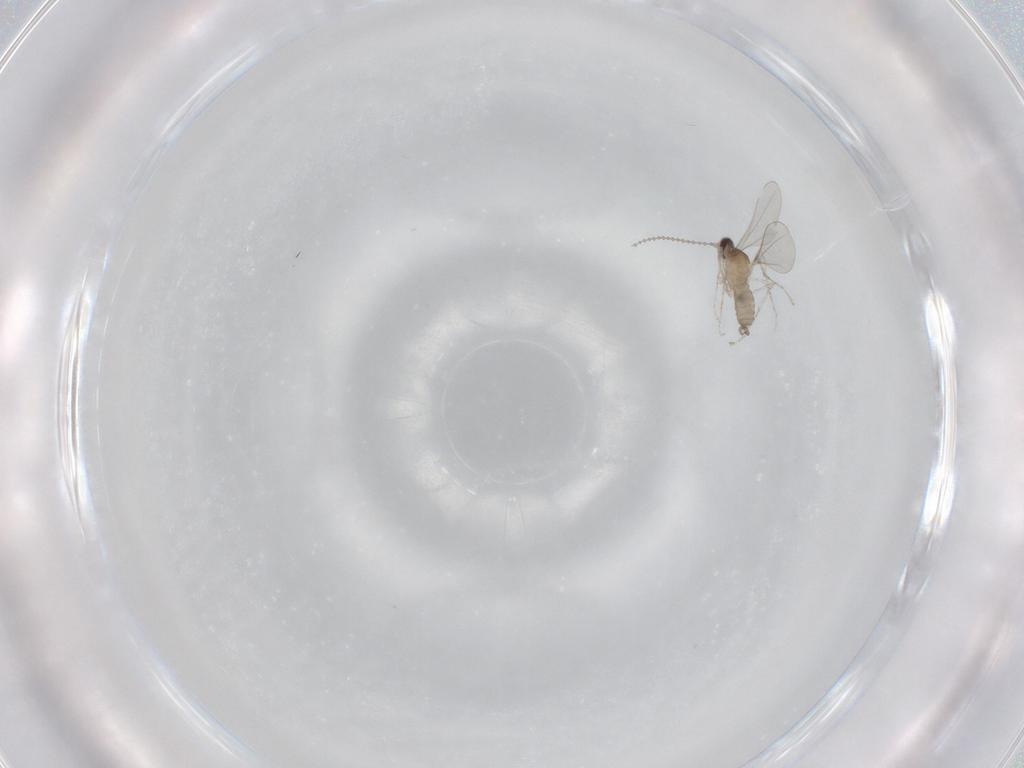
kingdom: Animalia
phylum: Arthropoda
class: Insecta
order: Diptera
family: Phoridae
